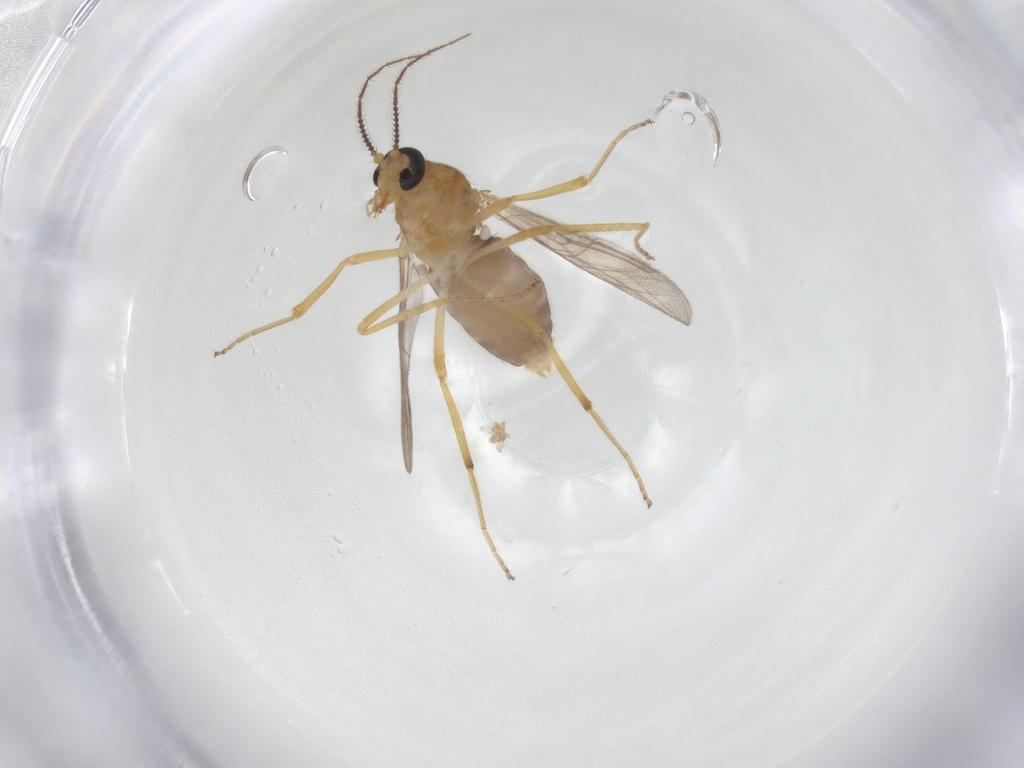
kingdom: Animalia
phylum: Arthropoda
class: Insecta
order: Diptera
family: Ceratopogonidae
